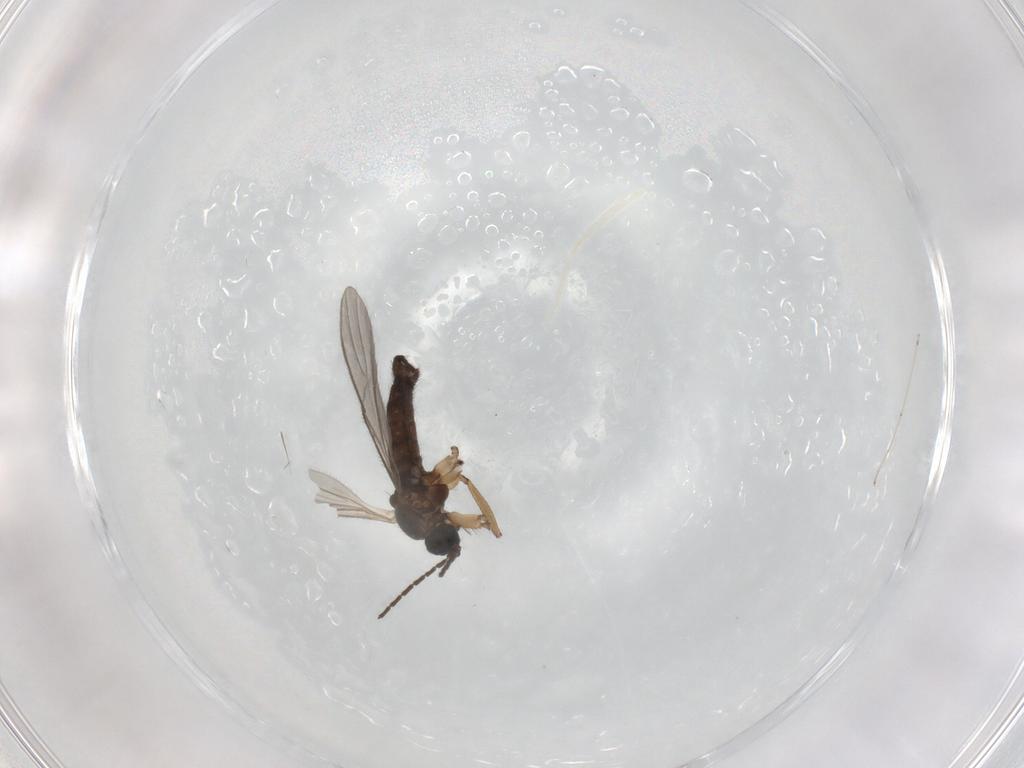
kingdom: Animalia
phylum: Arthropoda
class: Insecta
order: Diptera
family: Sciaridae
